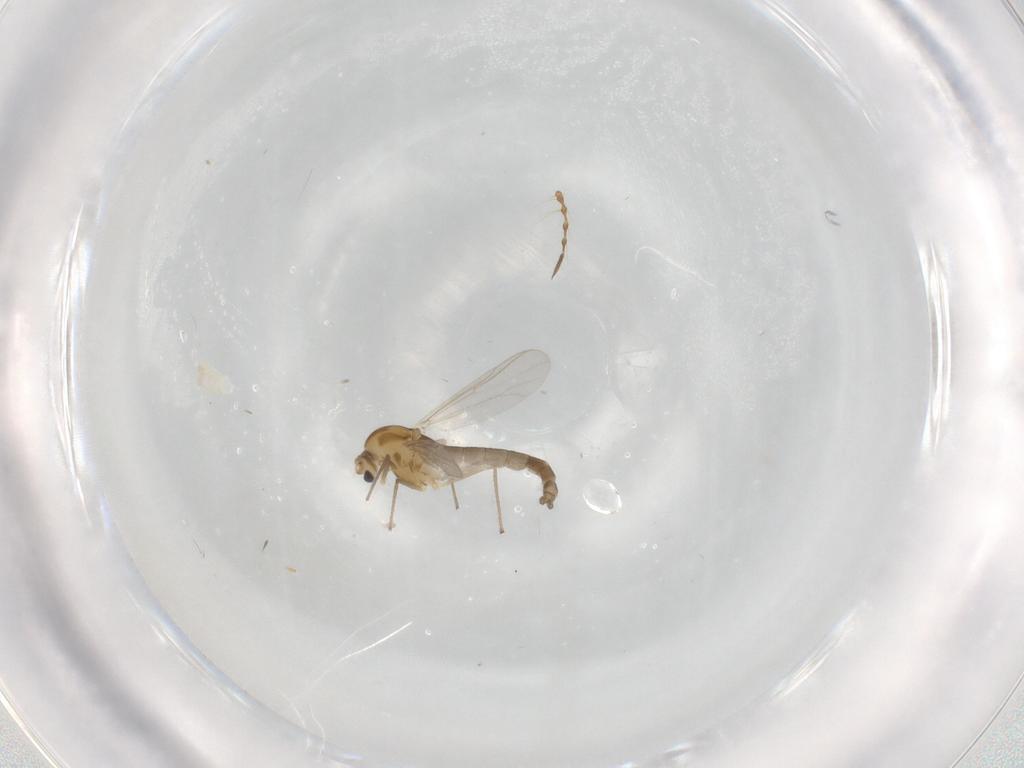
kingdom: Animalia
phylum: Arthropoda
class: Insecta
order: Diptera
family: Chironomidae
